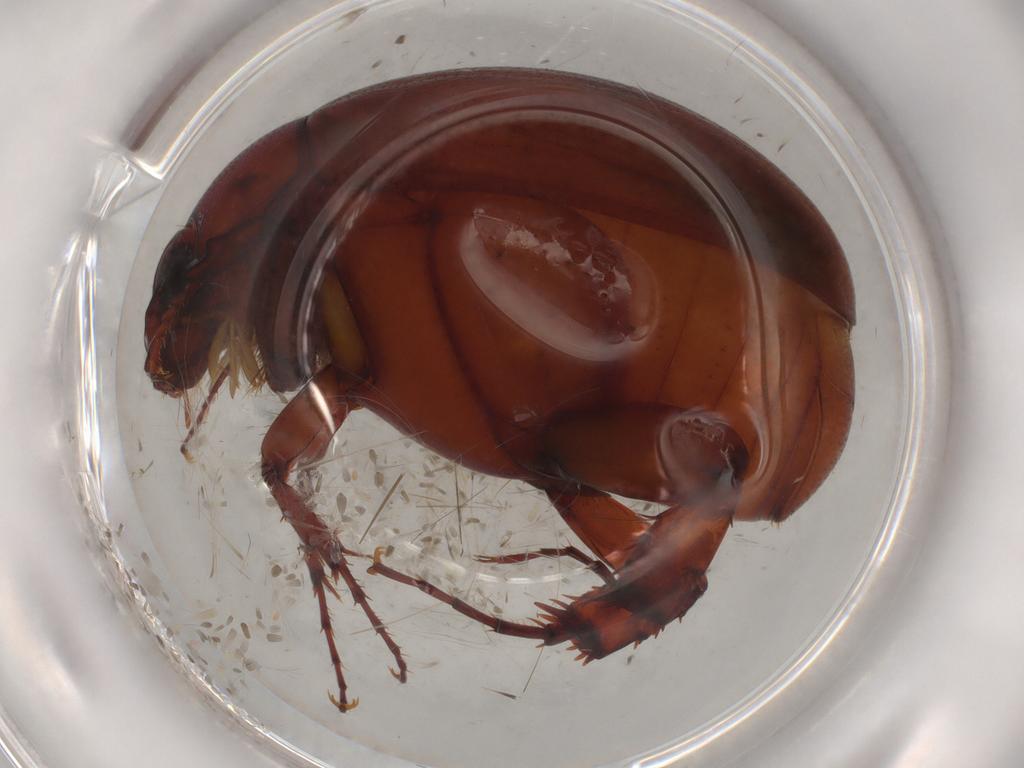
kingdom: Animalia
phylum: Arthropoda
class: Insecta
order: Coleoptera
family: Melolonthidae
